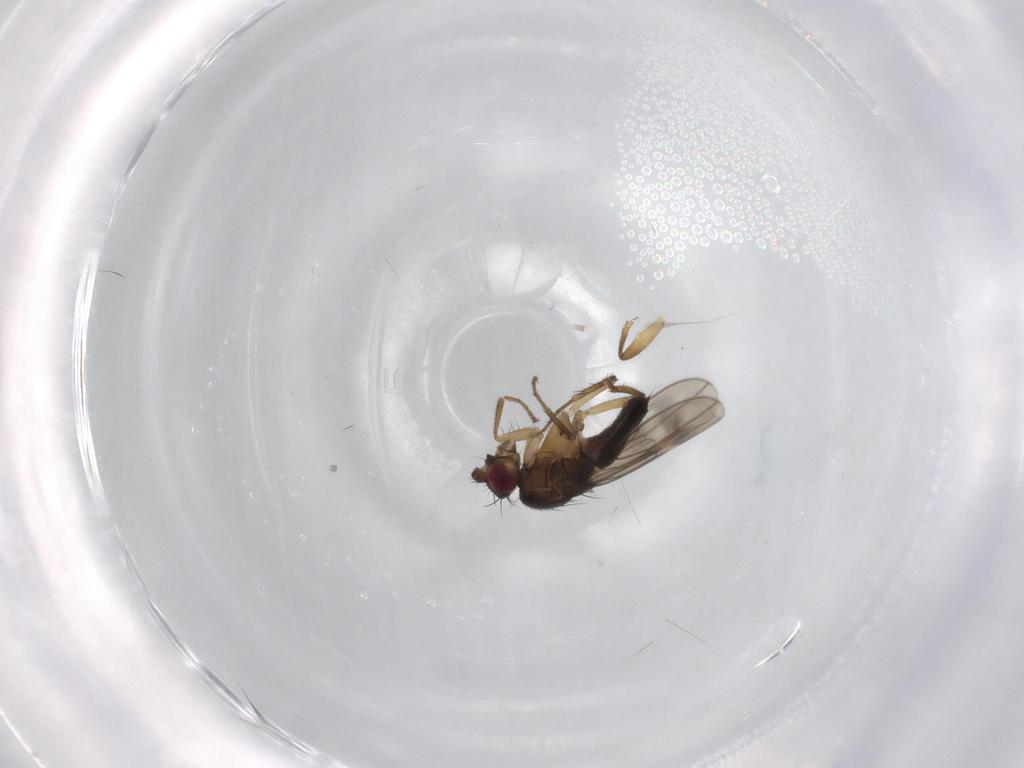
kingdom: Animalia
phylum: Arthropoda
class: Insecta
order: Diptera
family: Sphaeroceridae
